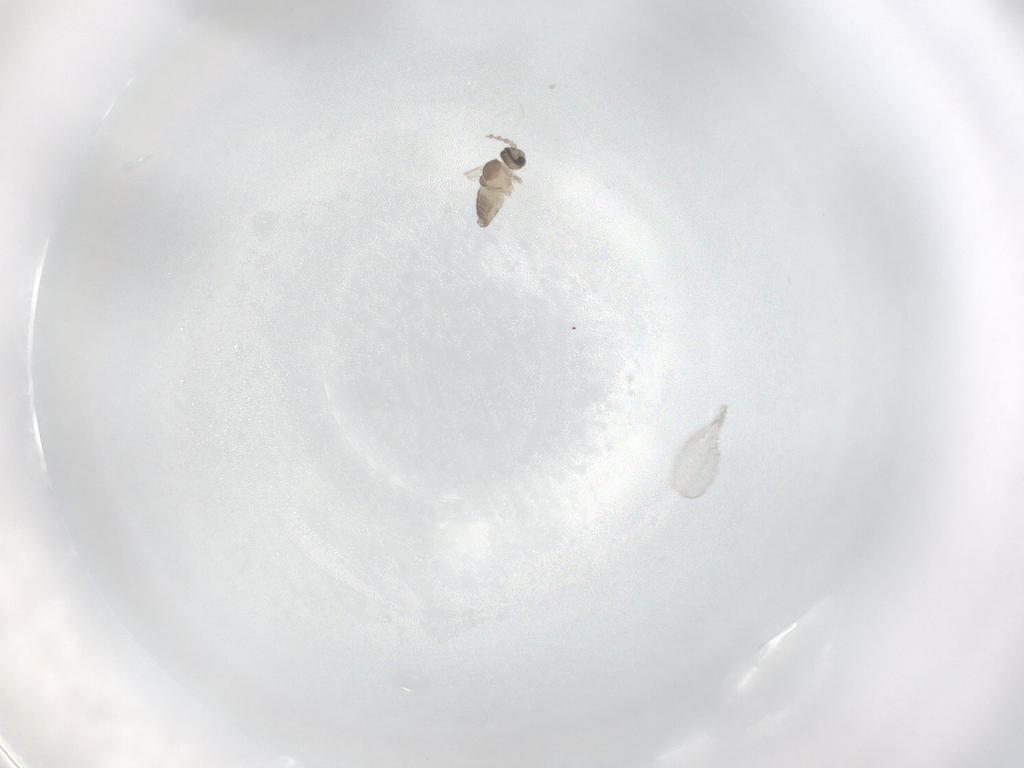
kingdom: Animalia
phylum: Arthropoda
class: Insecta
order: Diptera
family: Cecidomyiidae
